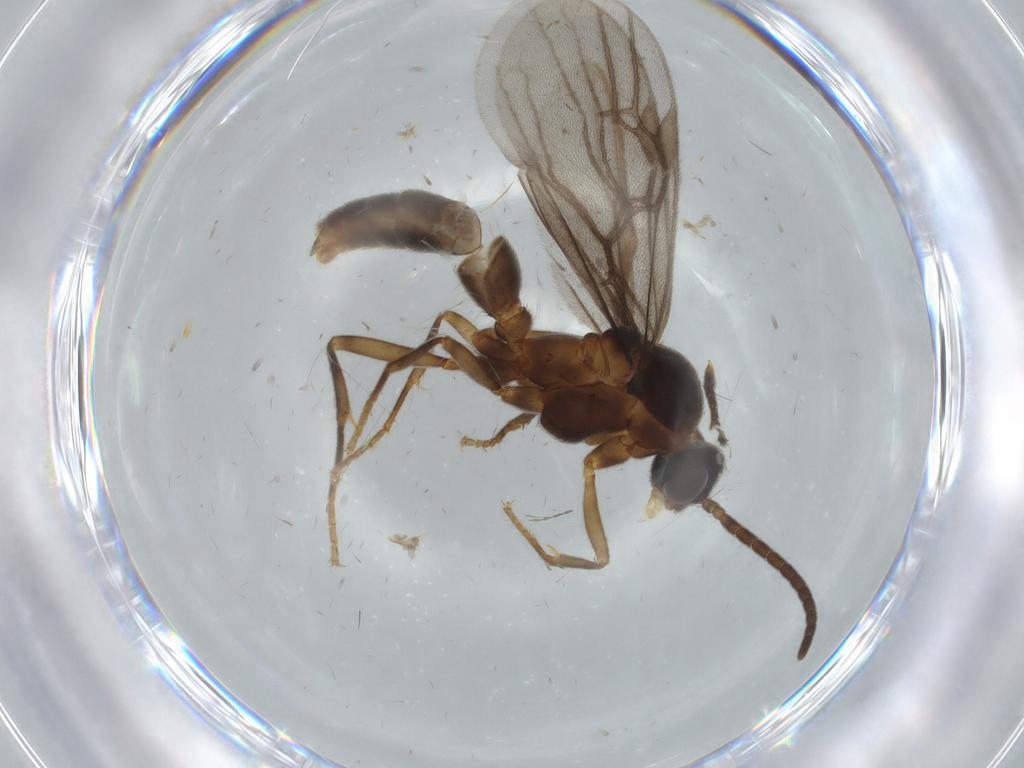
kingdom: Animalia
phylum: Arthropoda
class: Insecta
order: Hymenoptera
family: Formicidae
